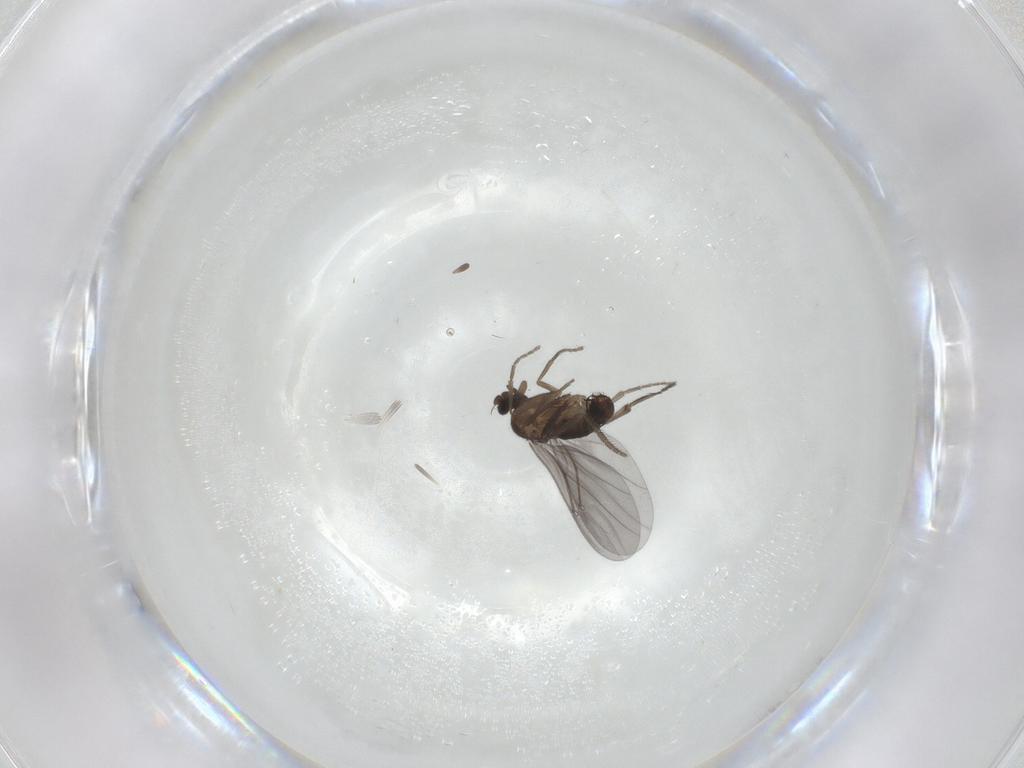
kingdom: Animalia
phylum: Arthropoda
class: Insecta
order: Diptera
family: Phoridae
